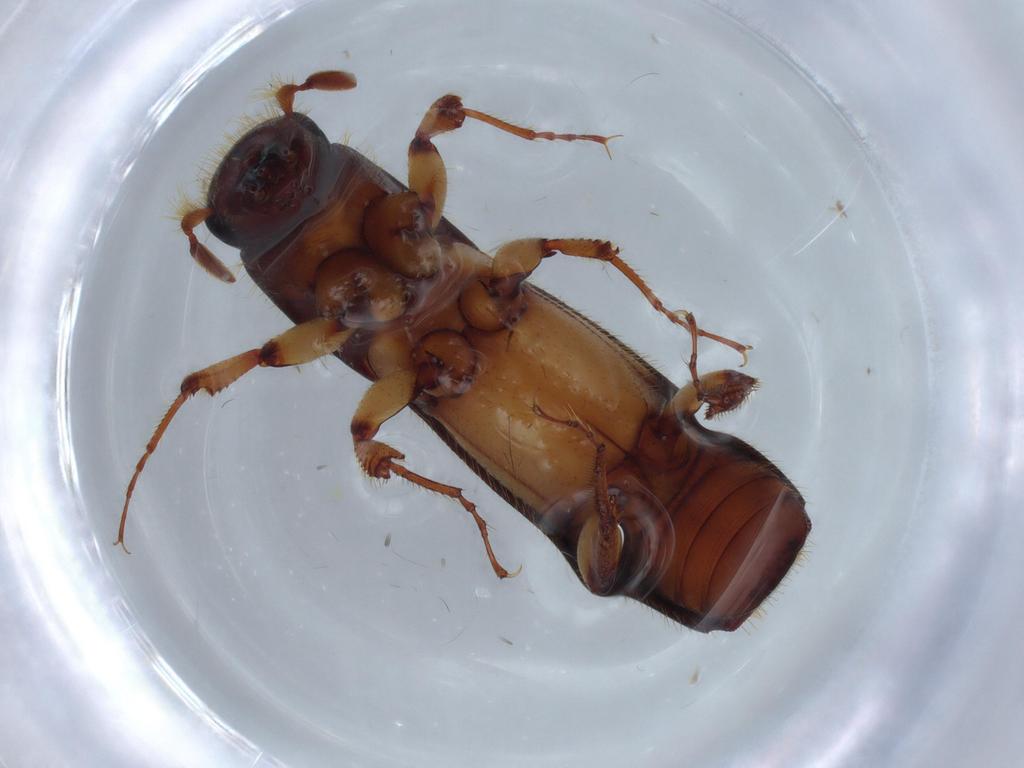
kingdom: Animalia
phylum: Arthropoda
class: Insecta
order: Coleoptera
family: Curculionidae
